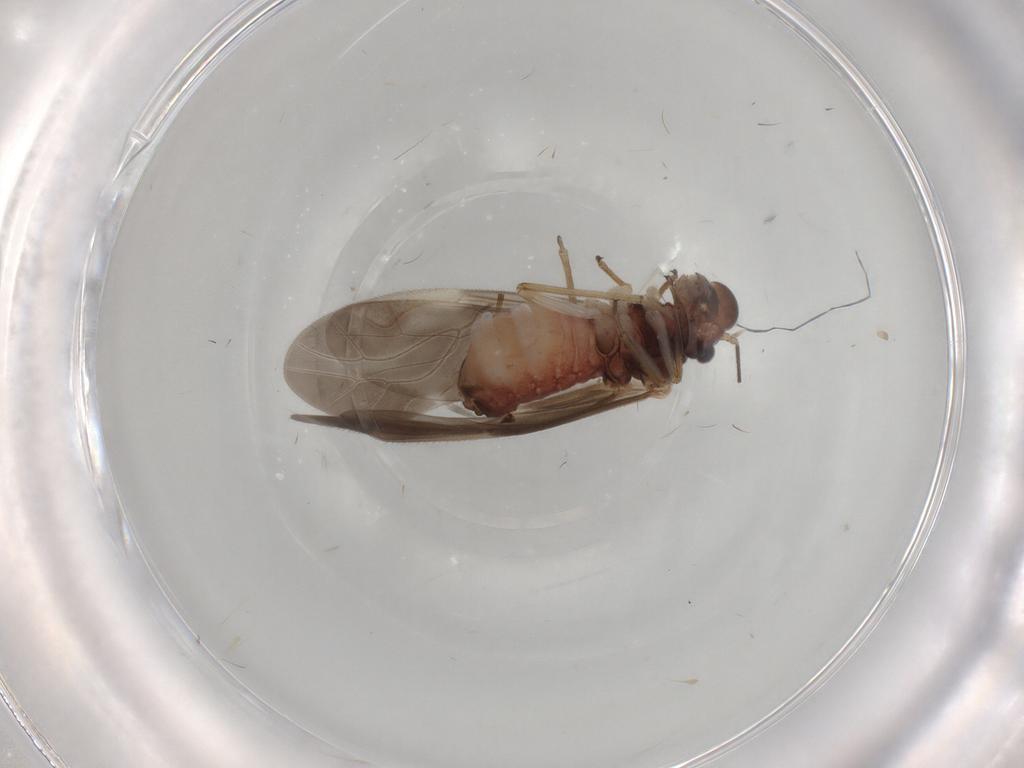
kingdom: Animalia
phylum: Arthropoda
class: Insecta
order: Psocodea
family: Caeciliusidae
